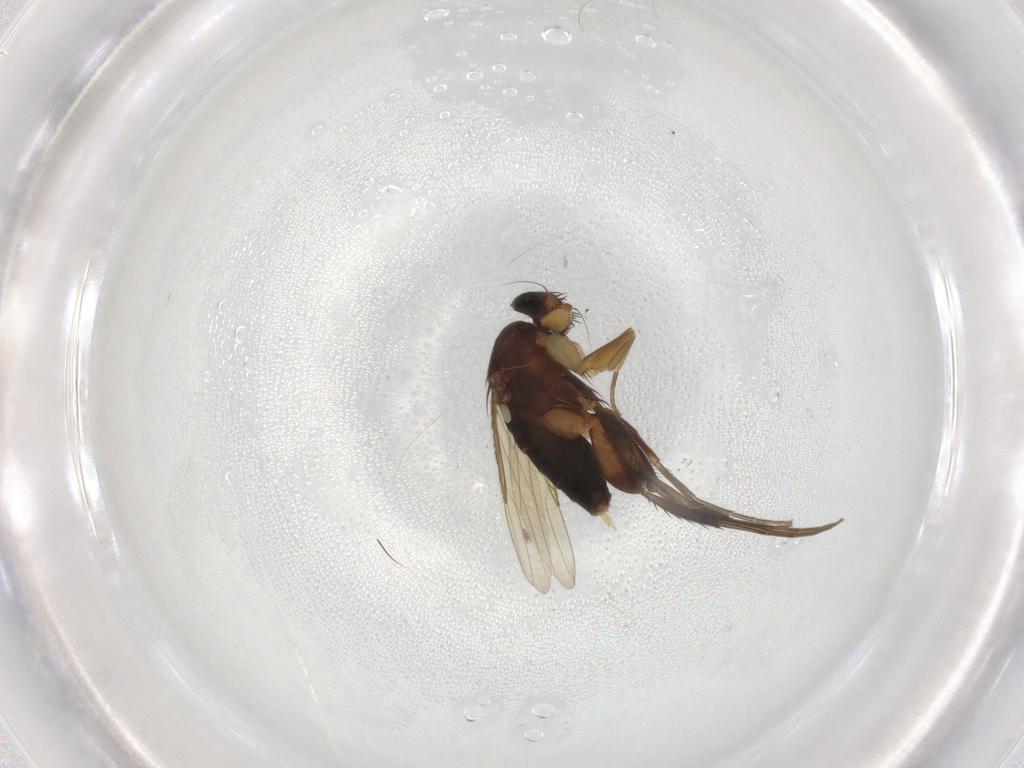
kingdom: Animalia
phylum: Arthropoda
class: Insecta
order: Diptera
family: Phoridae
